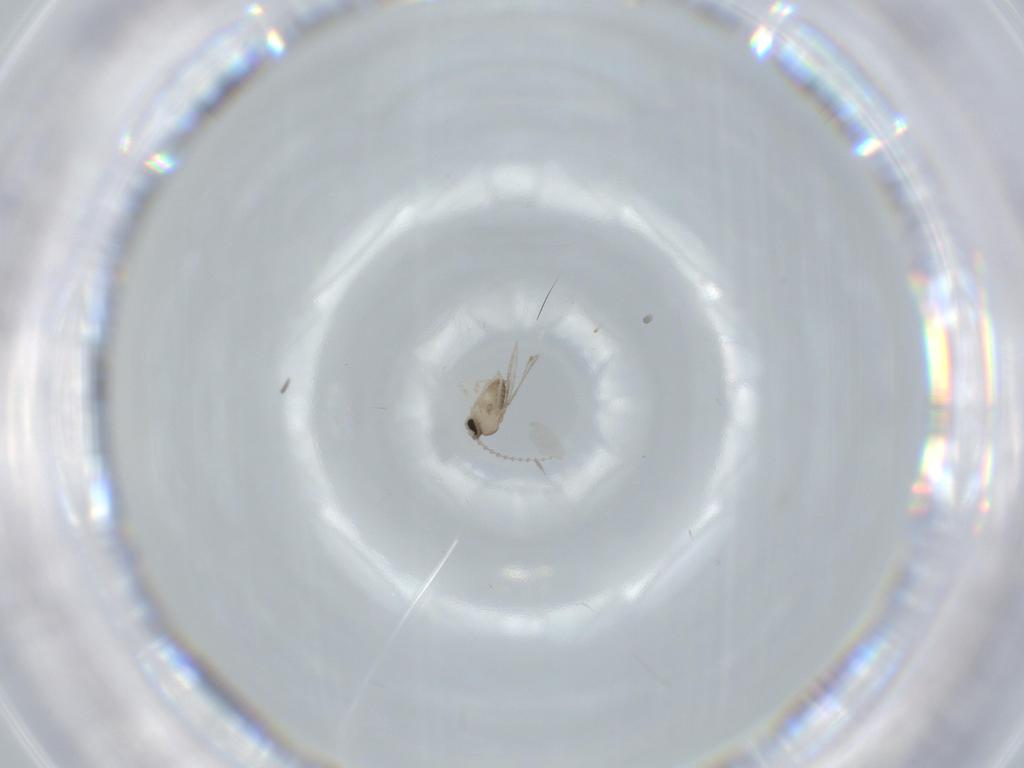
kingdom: Animalia
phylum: Arthropoda
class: Insecta
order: Diptera
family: Cecidomyiidae
